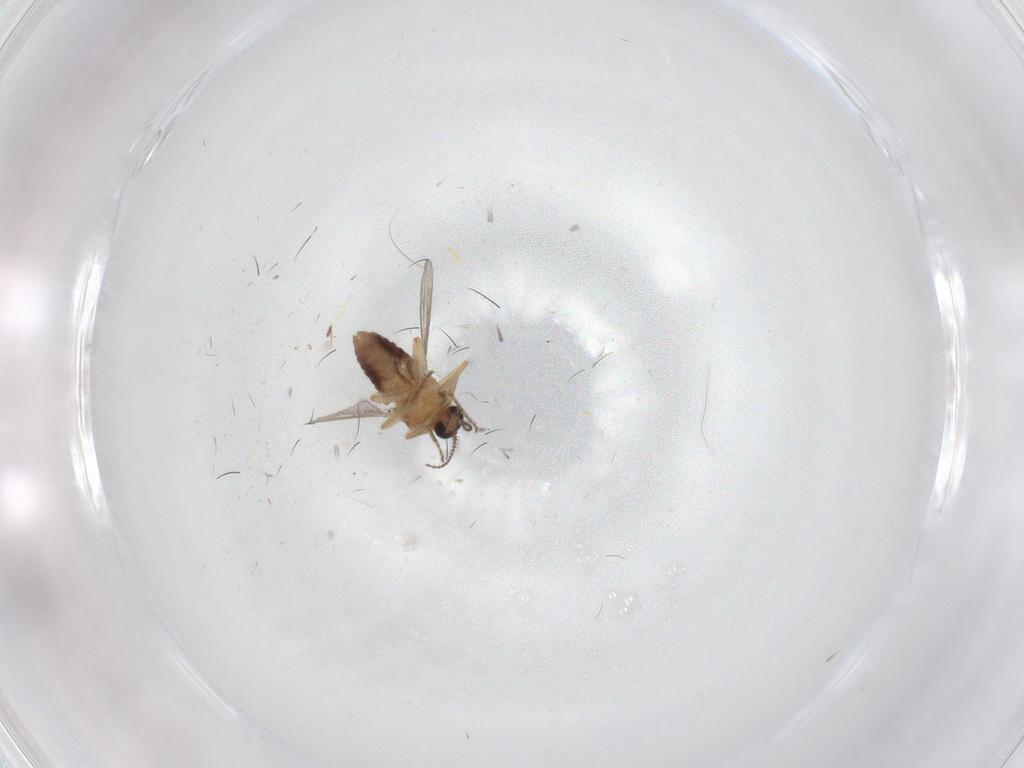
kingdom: Animalia
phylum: Arthropoda
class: Insecta
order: Diptera
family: Ceratopogonidae
